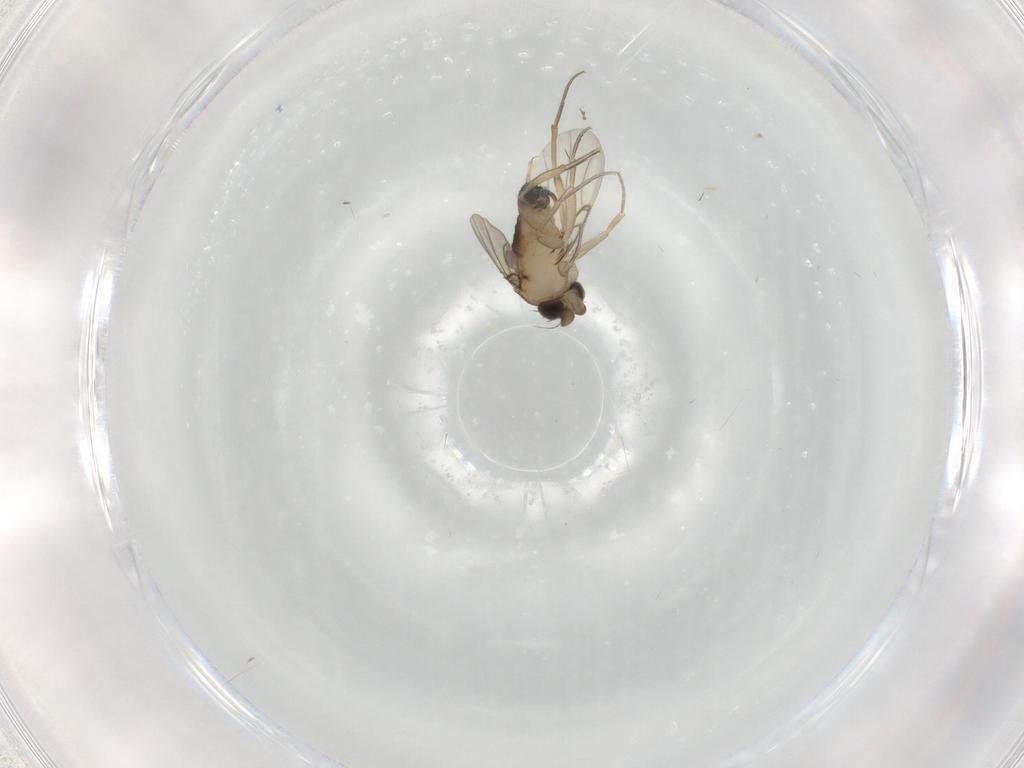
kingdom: Animalia
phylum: Arthropoda
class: Insecta
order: Diptera
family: Phoridae
